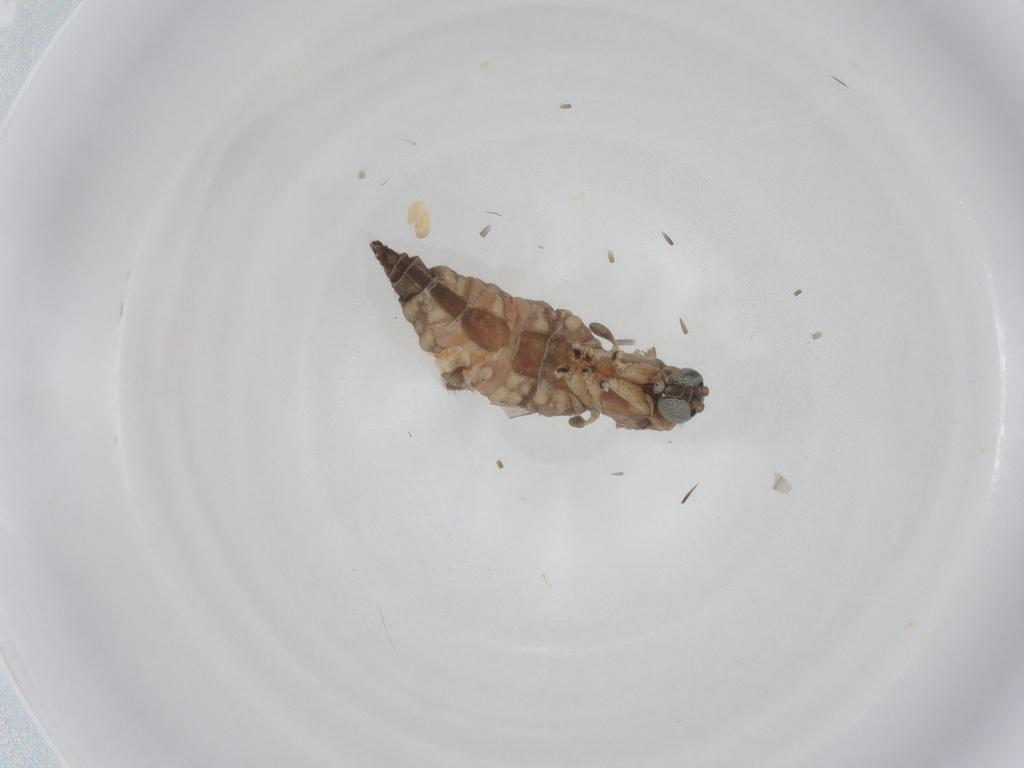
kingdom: Animalia
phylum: Arthropoda
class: Insecta
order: Diptera
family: Sciaridae
